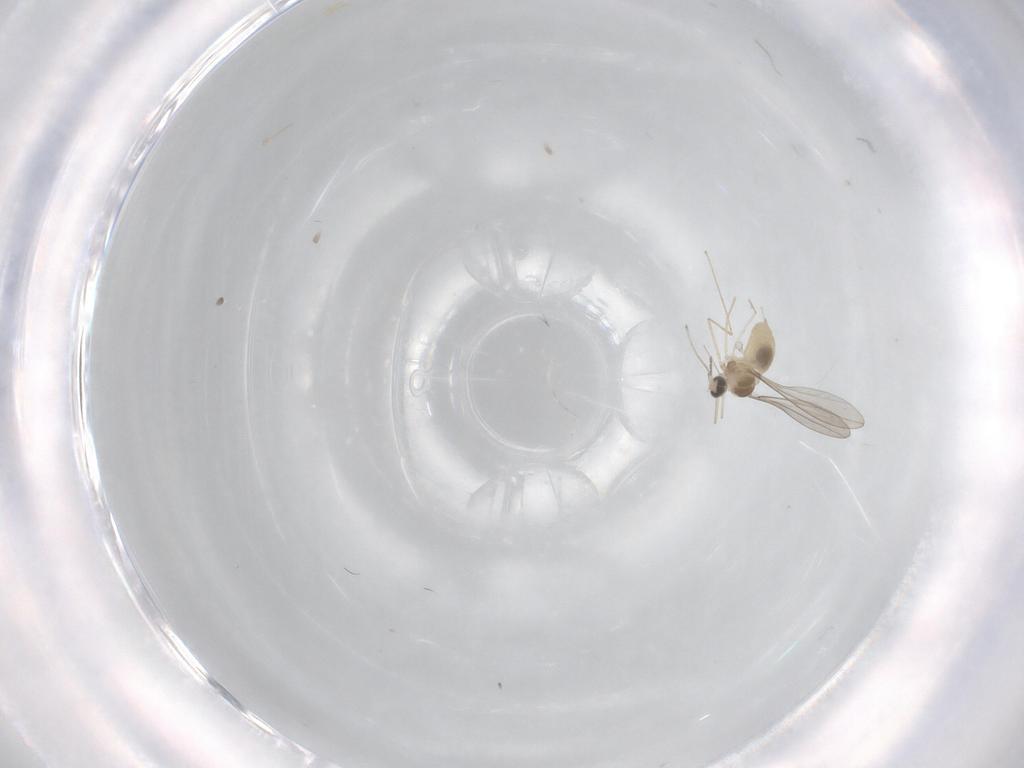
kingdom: Animalia
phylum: Arthropoda
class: Insecta
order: Diptera
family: Cecidomyiidae
